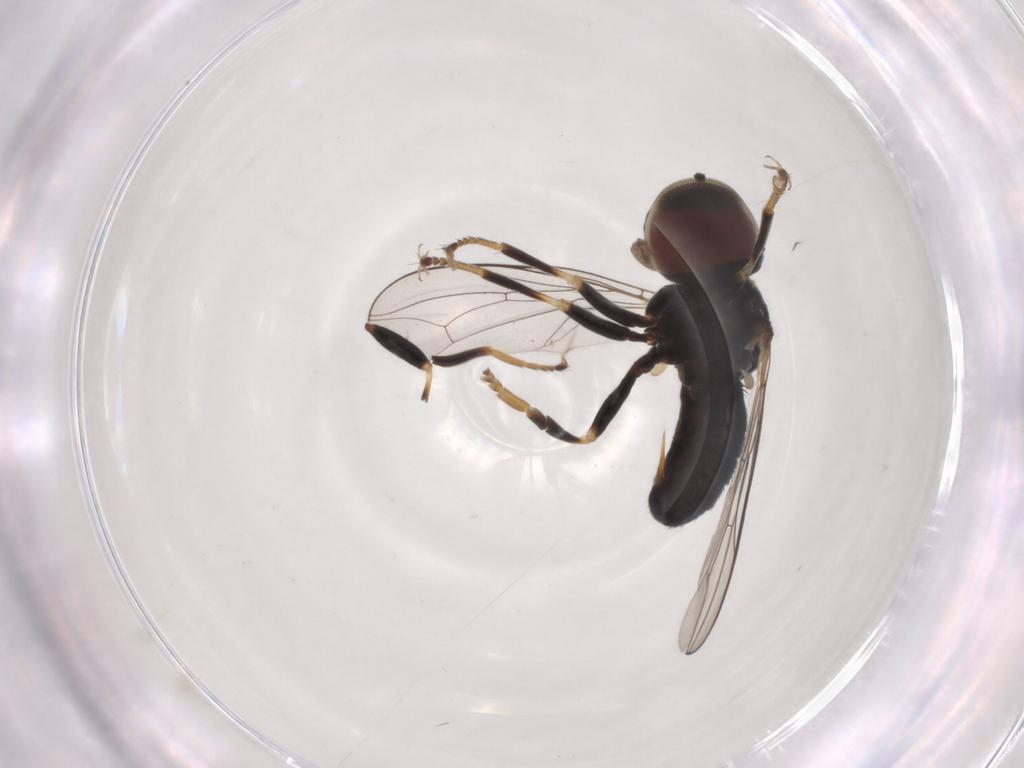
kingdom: Animalia
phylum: Arthropoda
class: Insecta
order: Diptera
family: Pipunculidae
